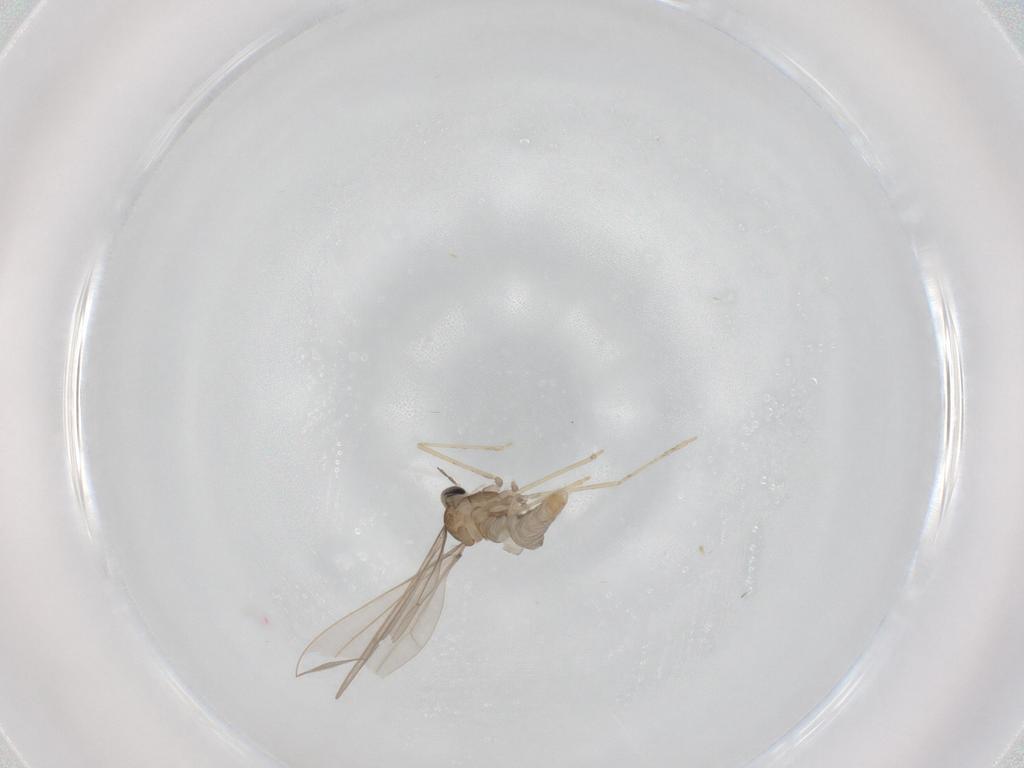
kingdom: Animalia
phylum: Arthropoda
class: Insecta
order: Diptera
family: Cecidomyiidae
